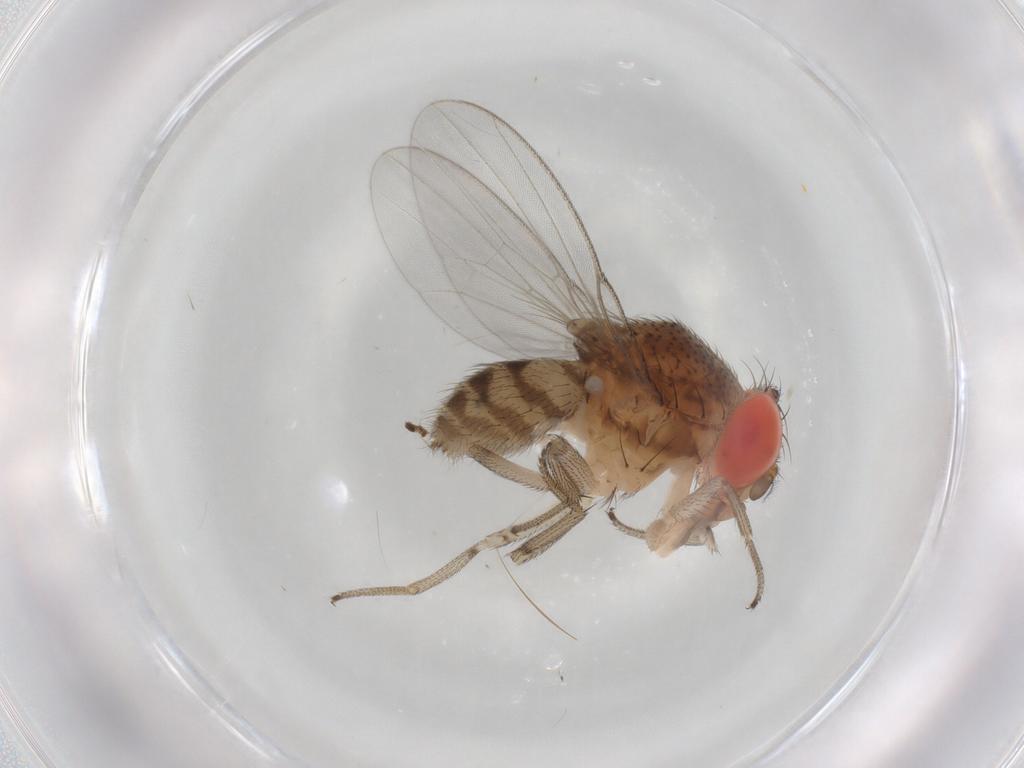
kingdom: Animalia
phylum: Arthropoda
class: Insecta
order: Diptera
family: Drosophilidae
